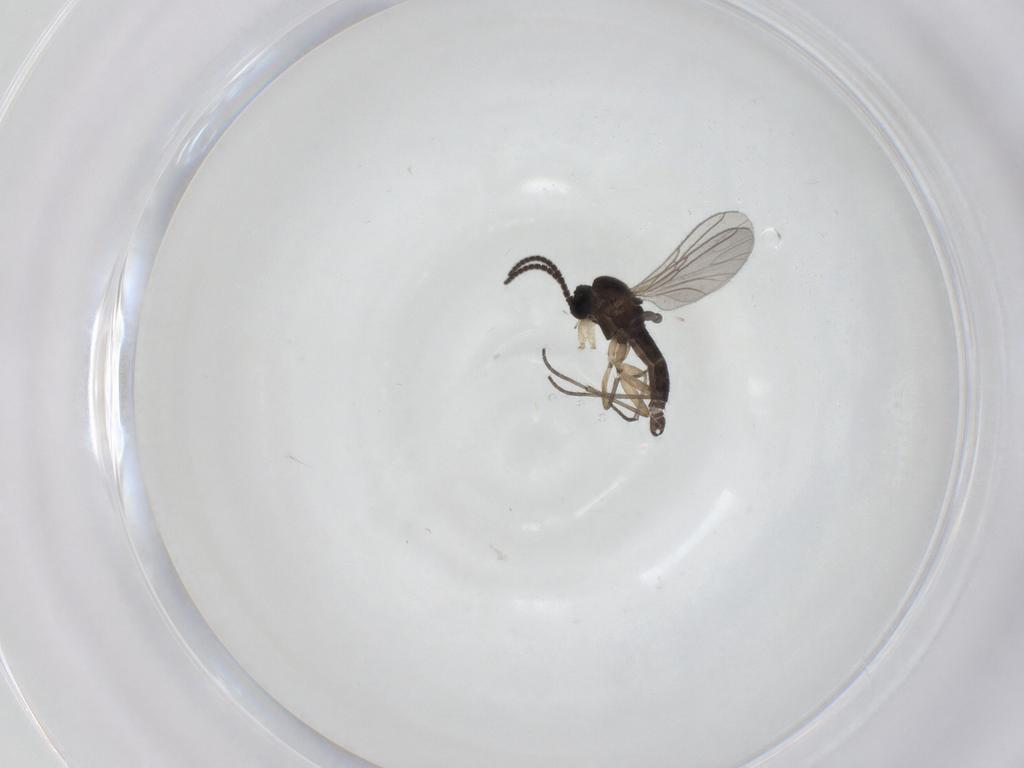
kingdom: Animalia
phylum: Arthropoda
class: Insecta
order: Diptera
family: Sciaridae
